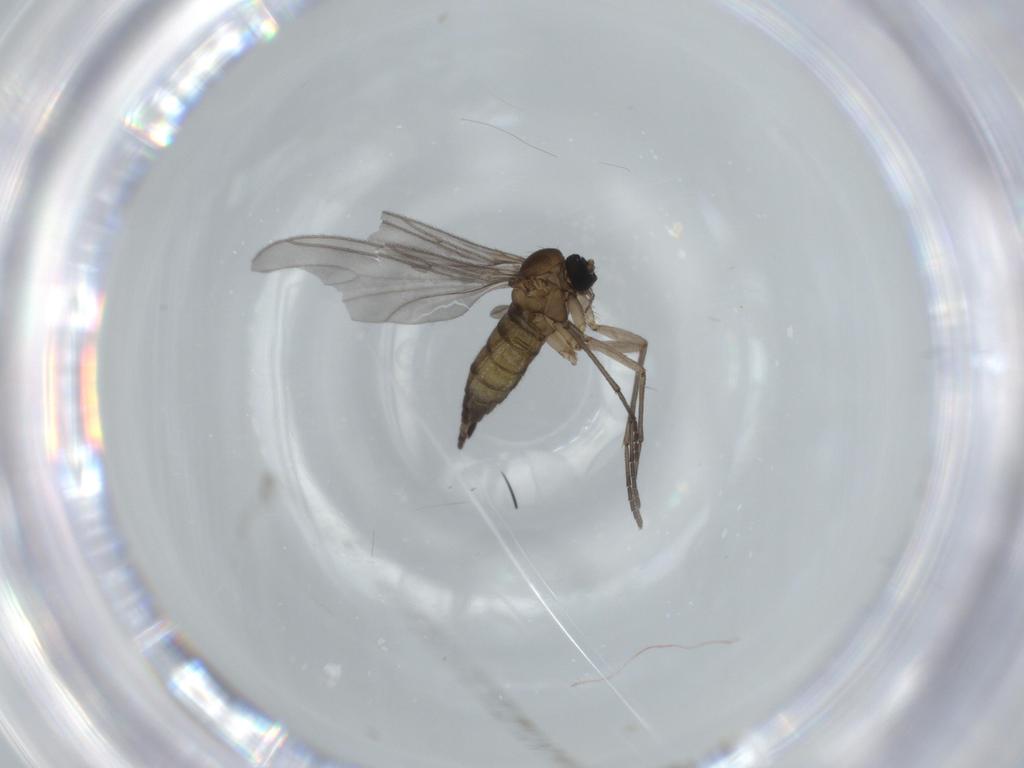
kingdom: Animalia
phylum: Arthropoda
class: Insecta
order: Diptera
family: Sciaridae
